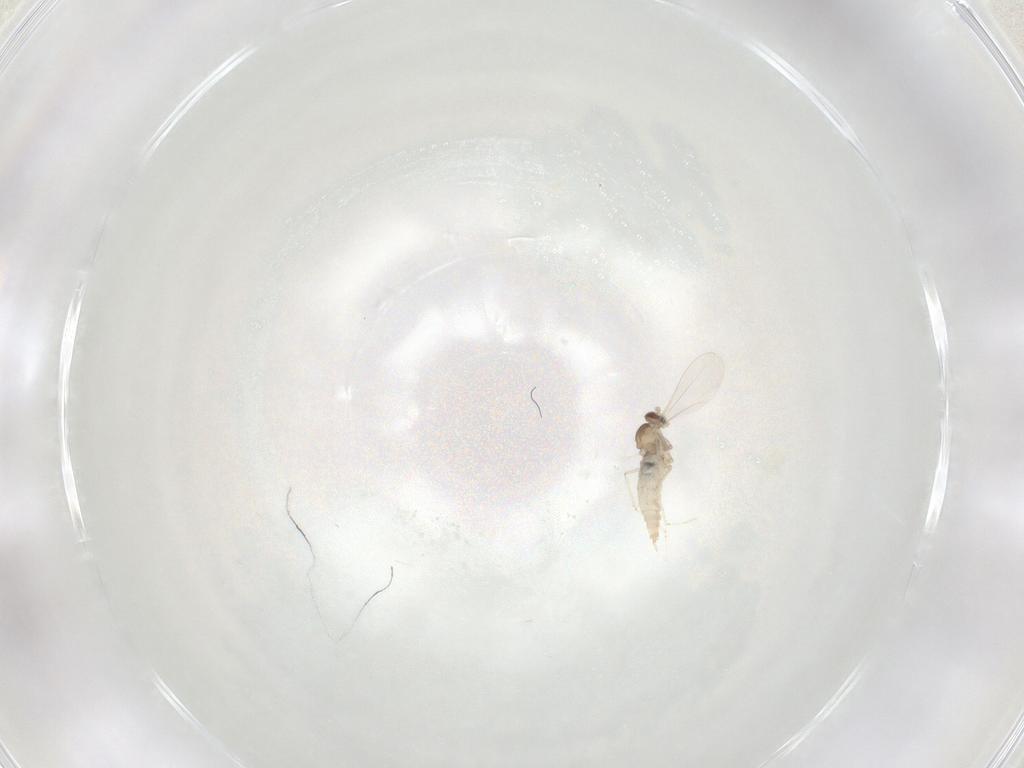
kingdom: Animalia
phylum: Arthropoda
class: Insecta
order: Diptera
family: Cecidomyiidae
